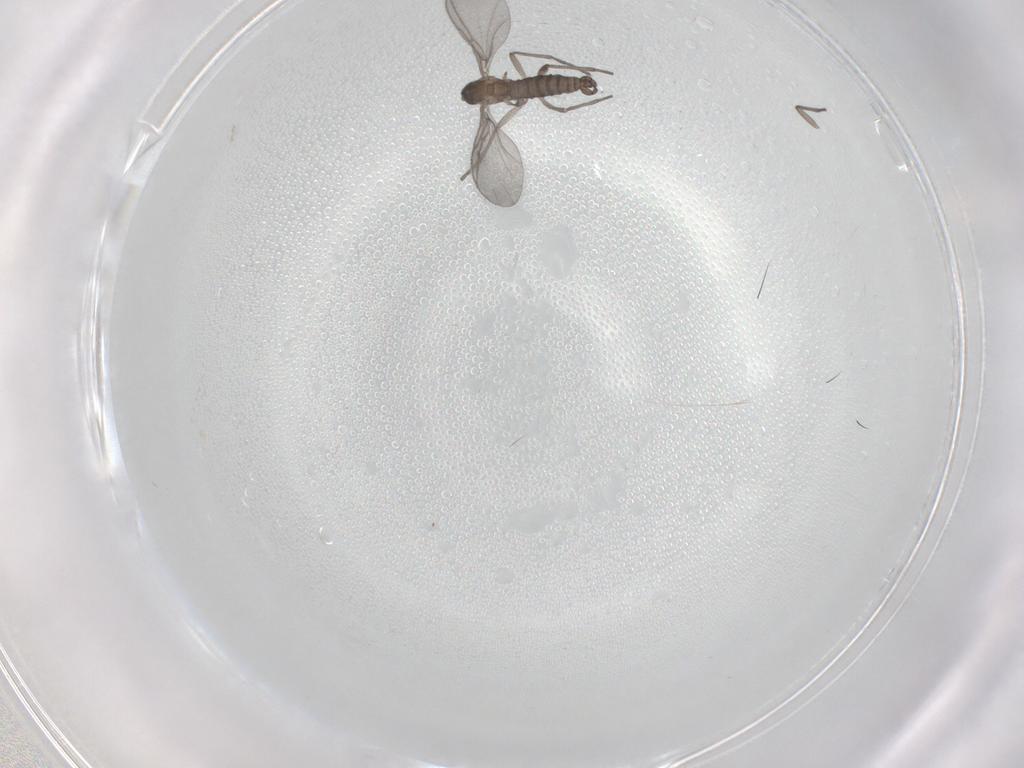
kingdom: Animalia
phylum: Arthropoda
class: Insecta
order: Diptera
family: Sciaridae
